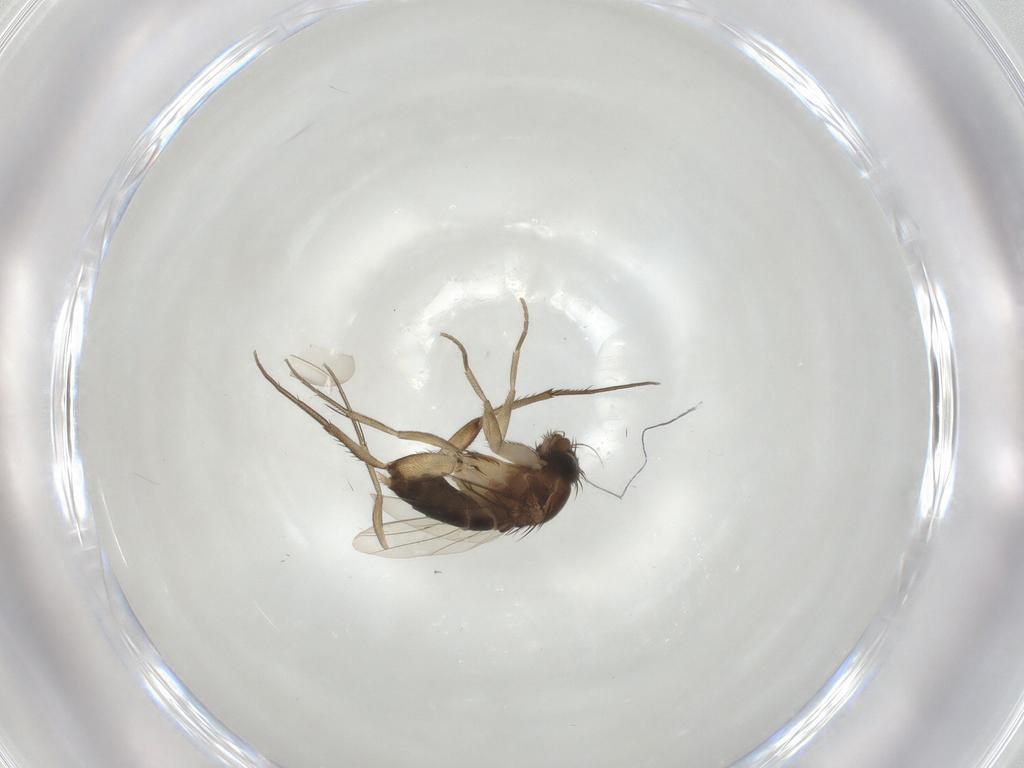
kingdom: Animalia
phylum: Arthropoda
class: Insecta
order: Diptera
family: Phoridae
